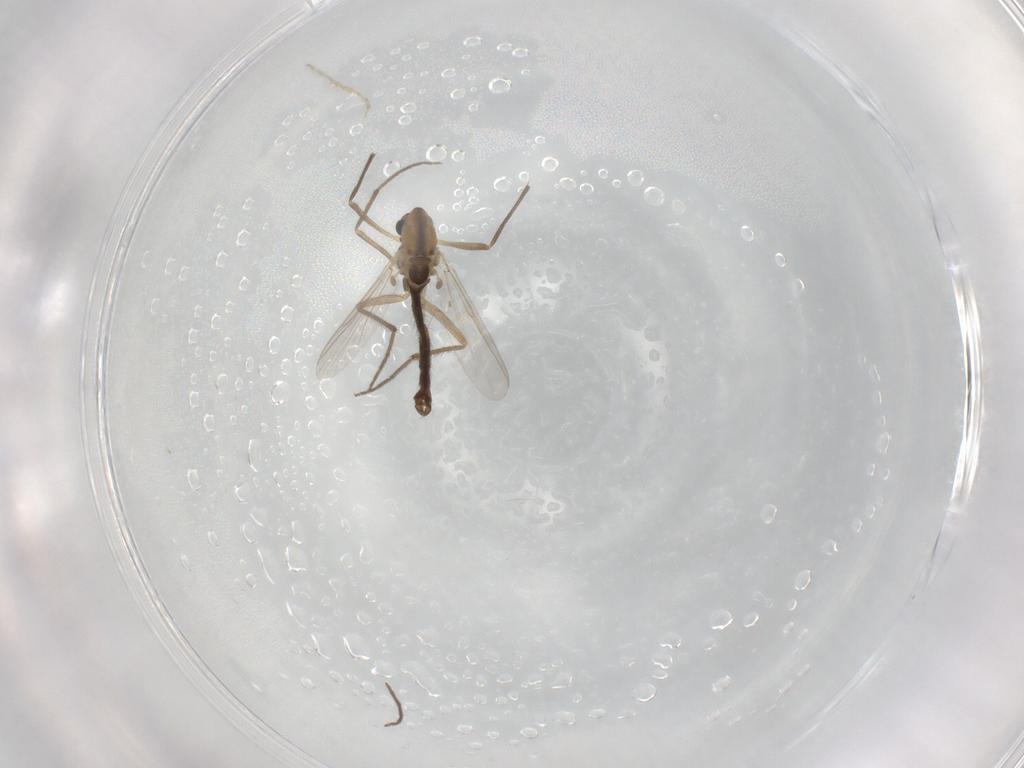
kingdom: Animalia
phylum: Arthropoda
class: Insecta
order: Diptera
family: Chironomidae
